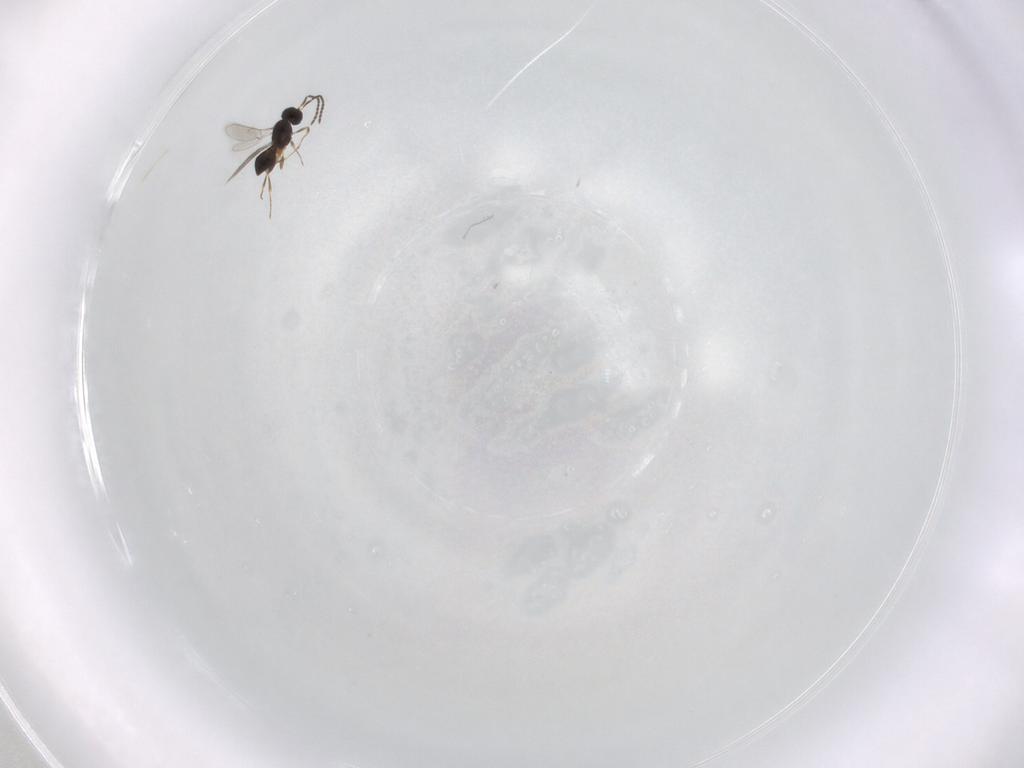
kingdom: Animalia
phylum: Arthropoda
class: Insecta
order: Hymenoptera
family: Scelionidae
